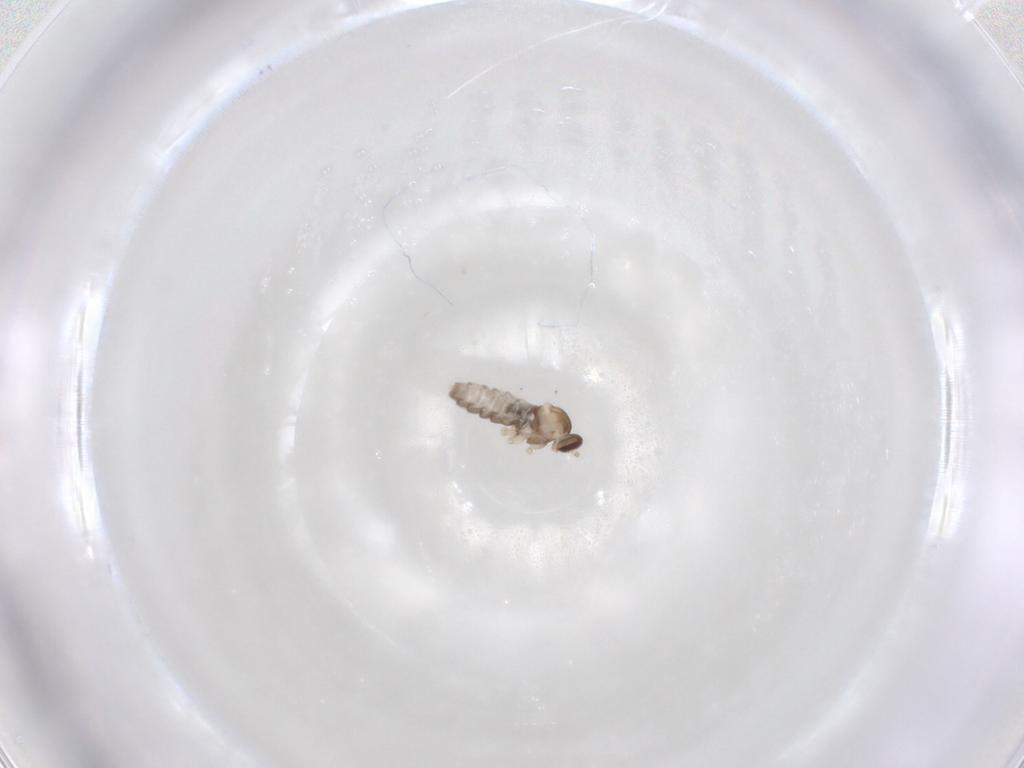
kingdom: Animalia
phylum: Arthropoda
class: Insecta
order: Diptera
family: Cecidomyiidae
